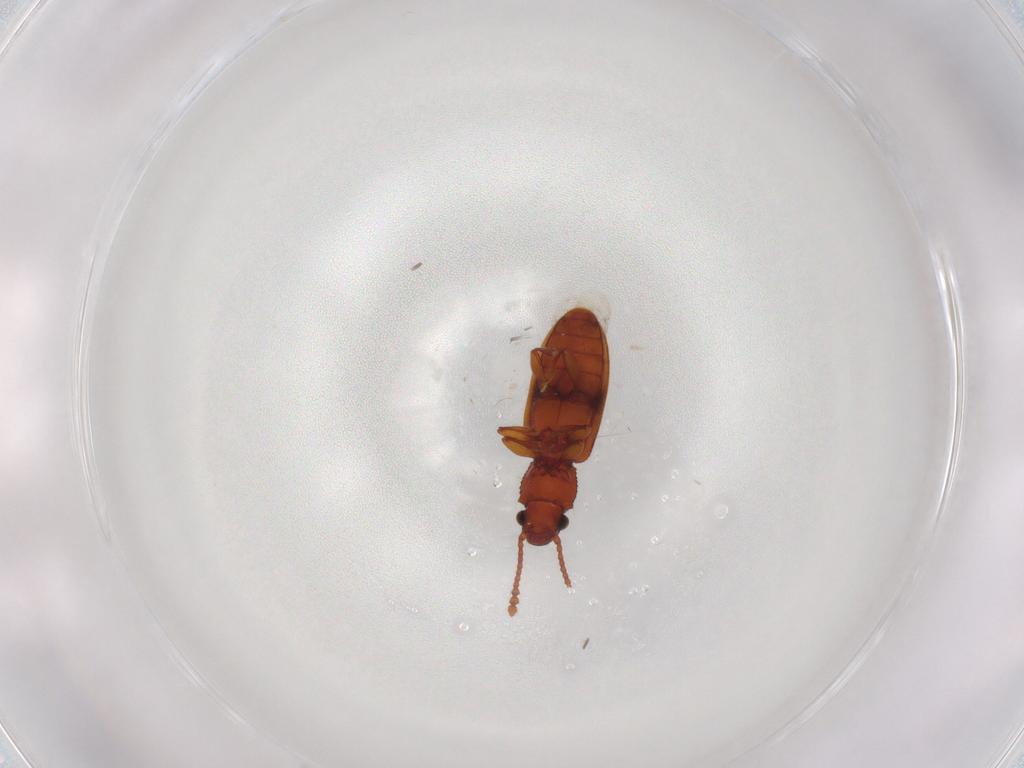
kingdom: Animalia
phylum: Arthropoda
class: Insecta
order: Coleoptera
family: Silvanidae
